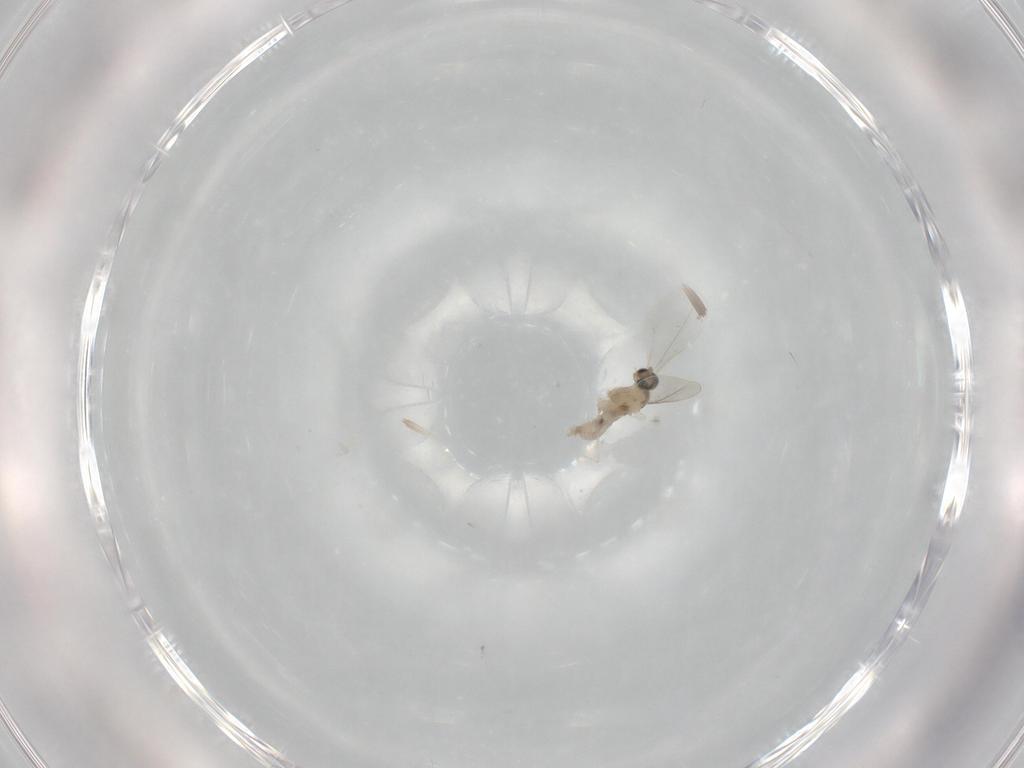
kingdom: Animalia
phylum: Arthropoda
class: Insecta
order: Diptera
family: Cecidomyiidae
